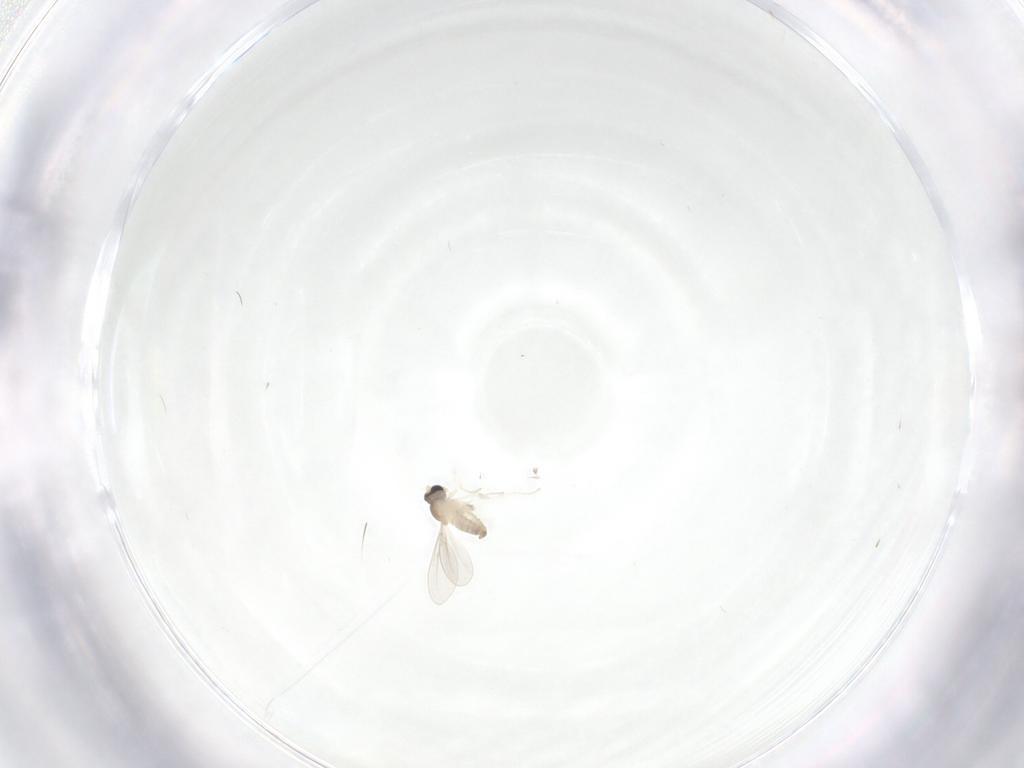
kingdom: Animalia
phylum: Arthropoda
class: Insecta
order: Diptera
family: Cecidomyiidae
